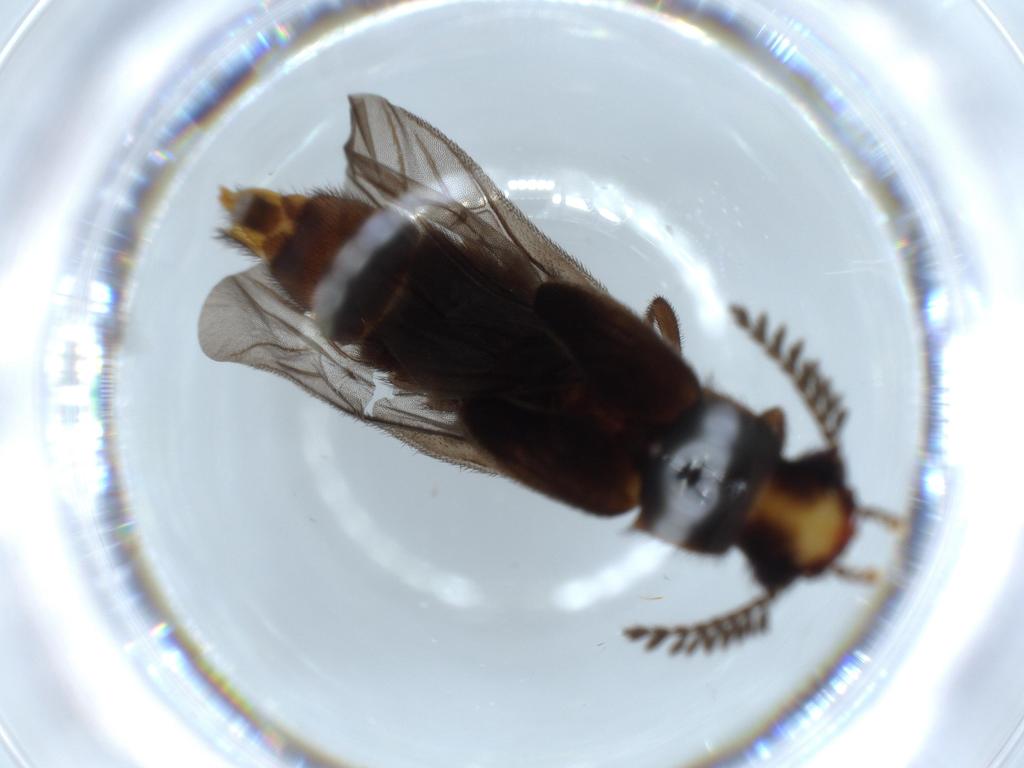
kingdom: Animalia
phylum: Arthropoda
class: Insecta
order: Coleoptera
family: Phengodidae
